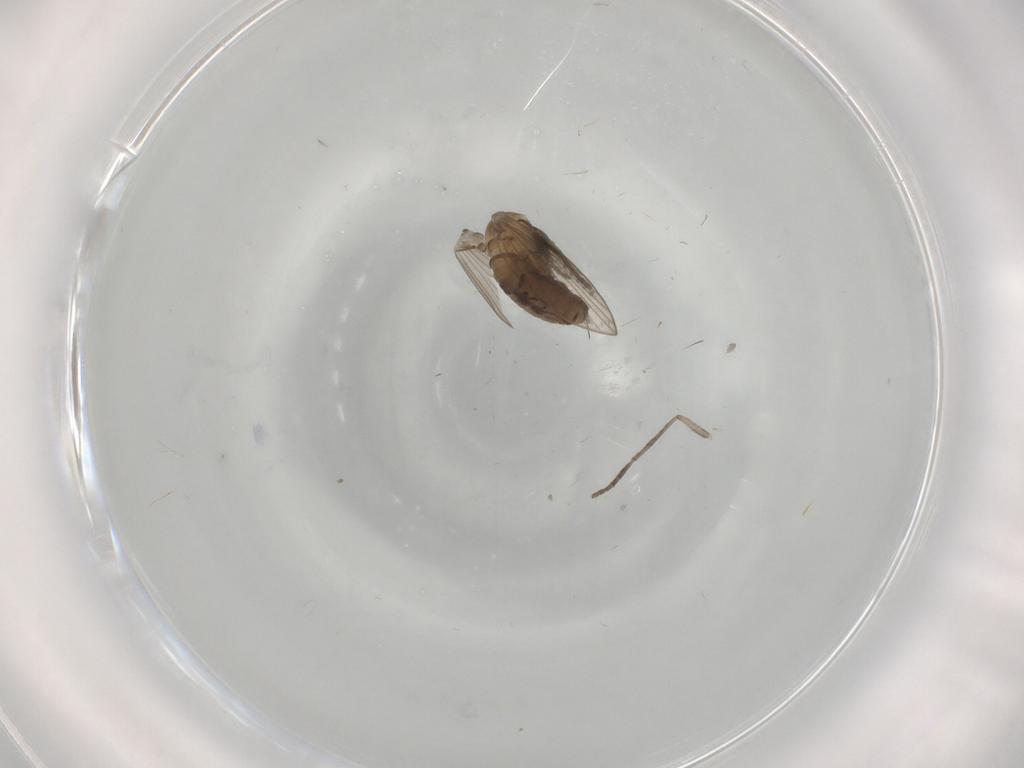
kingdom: Animalia
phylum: Arthropoda
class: Insecta
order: Diptera
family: Psychodidae
